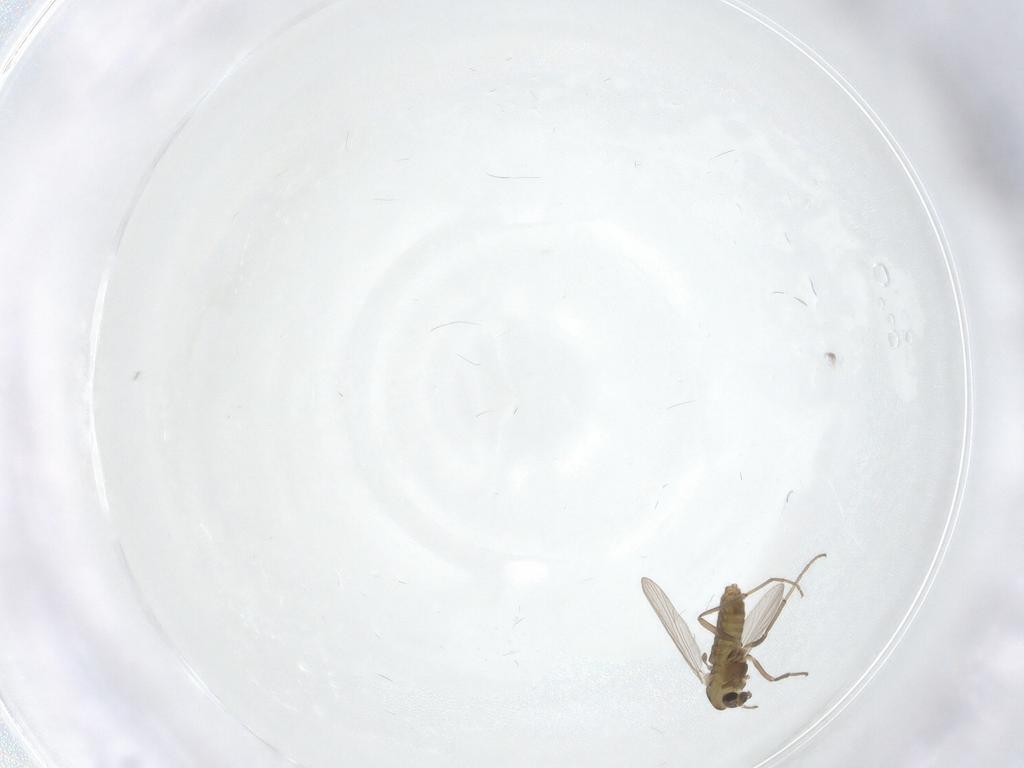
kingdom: Animalia
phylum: Arthropoda
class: Insecta
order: Diptera
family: Chironomidae
